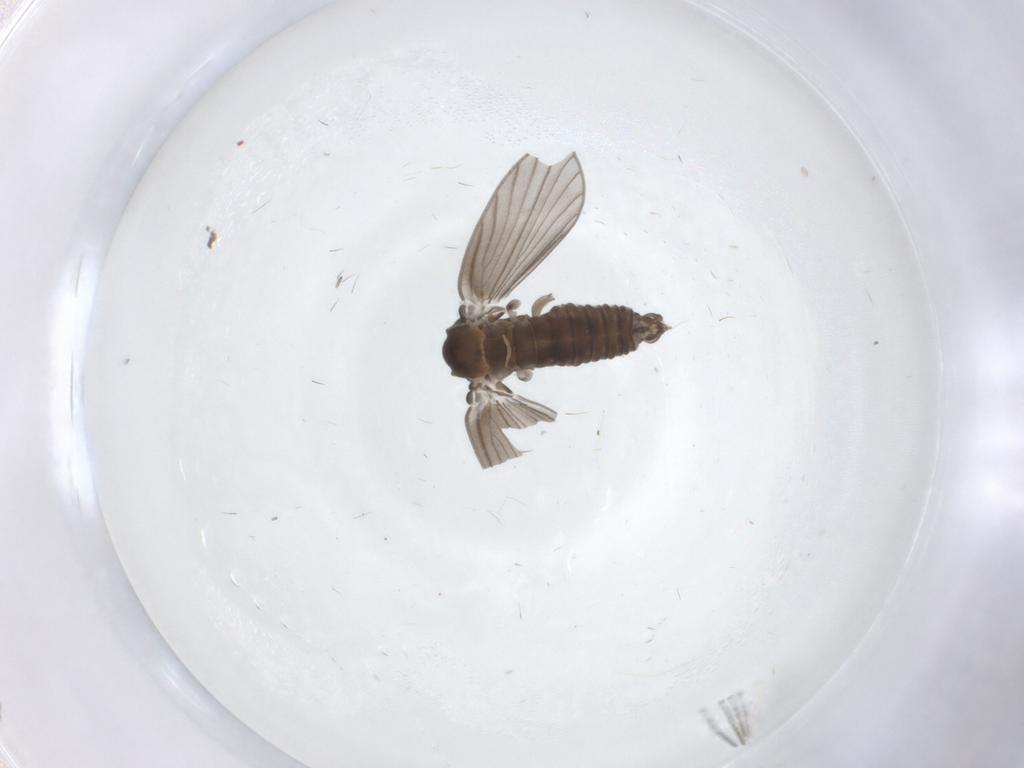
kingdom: Animalia
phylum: Arthropoda
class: Insecta
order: Diptera
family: Psychodidae
